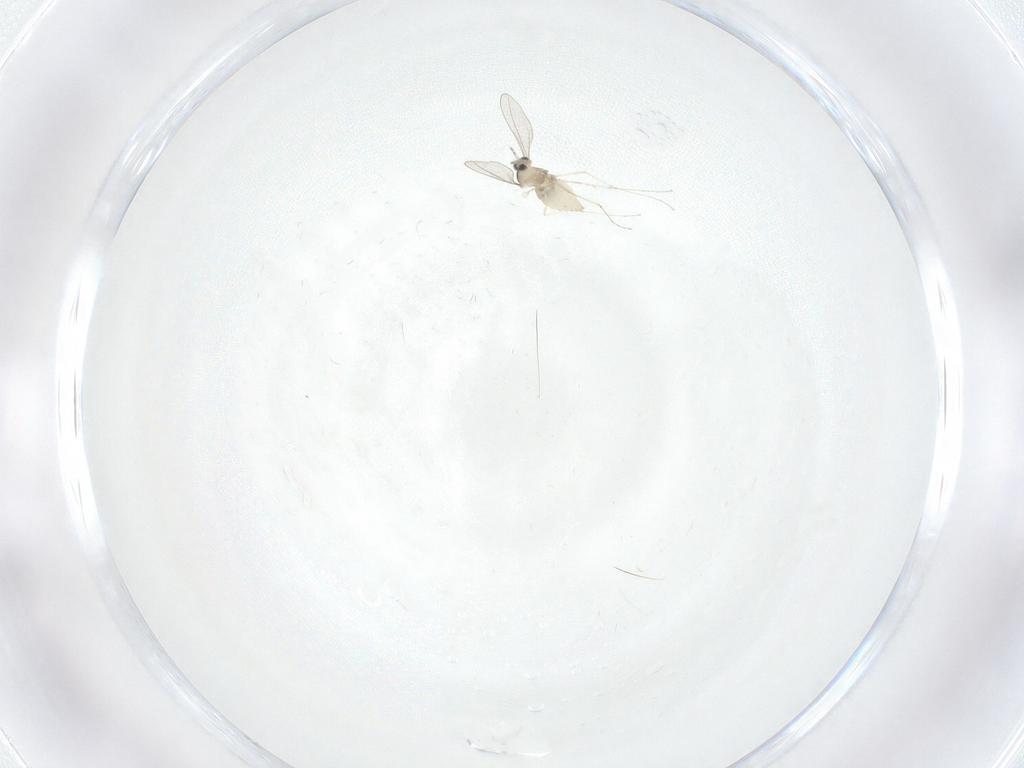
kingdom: Animalia
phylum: Arthropoda
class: Insecta
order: Diptera
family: Cecidomyiidae
